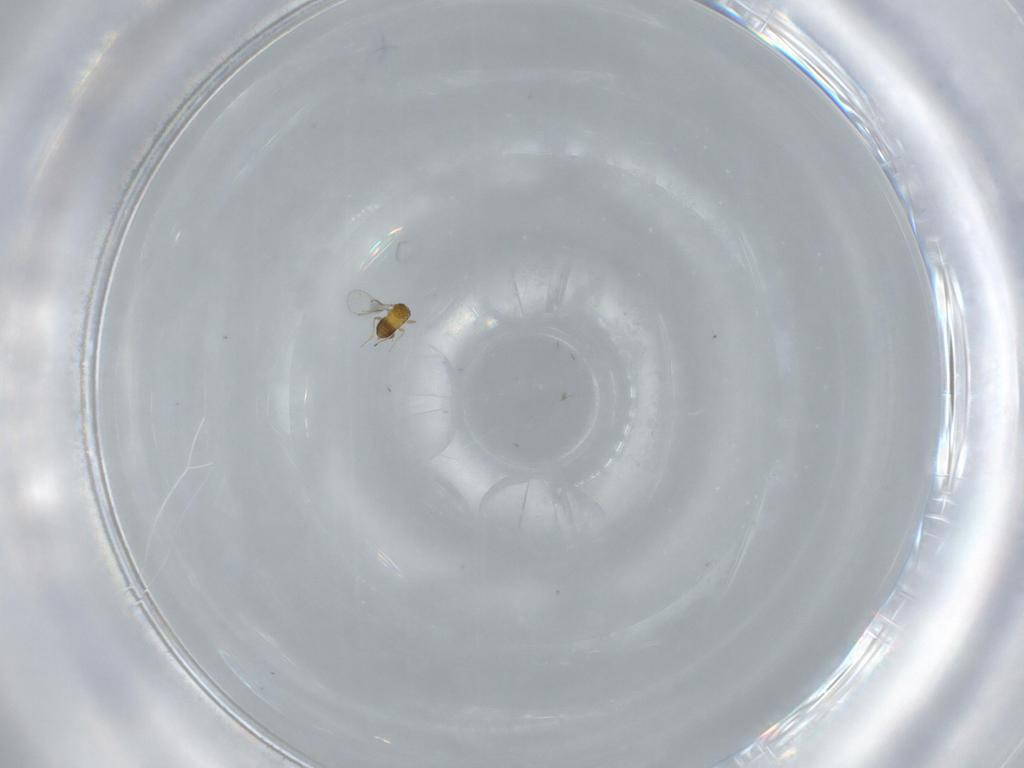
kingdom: Animalia
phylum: Arthropoda
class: Insecta
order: Hymenoptera
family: Trichogrammatidae
